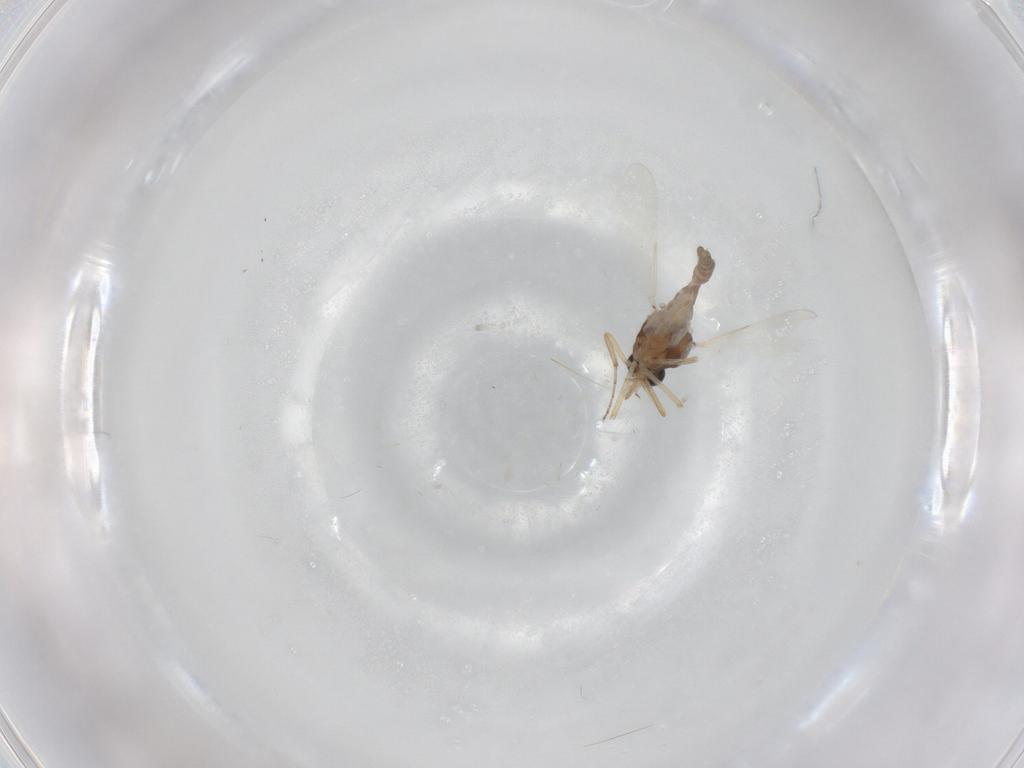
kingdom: Animalia
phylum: Arthropoda
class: Insecta
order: Diptera
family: Ceratopogonidae
